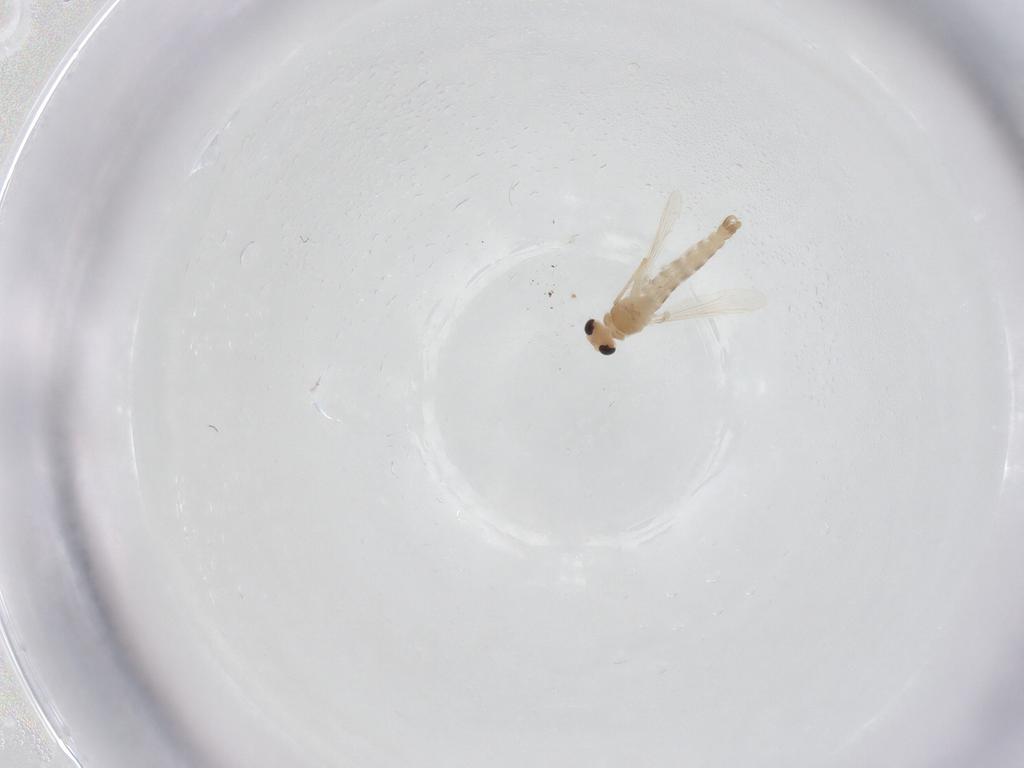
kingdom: Animalia
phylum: Arthropoda
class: Insecta
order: Diptera
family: Chironomidae
